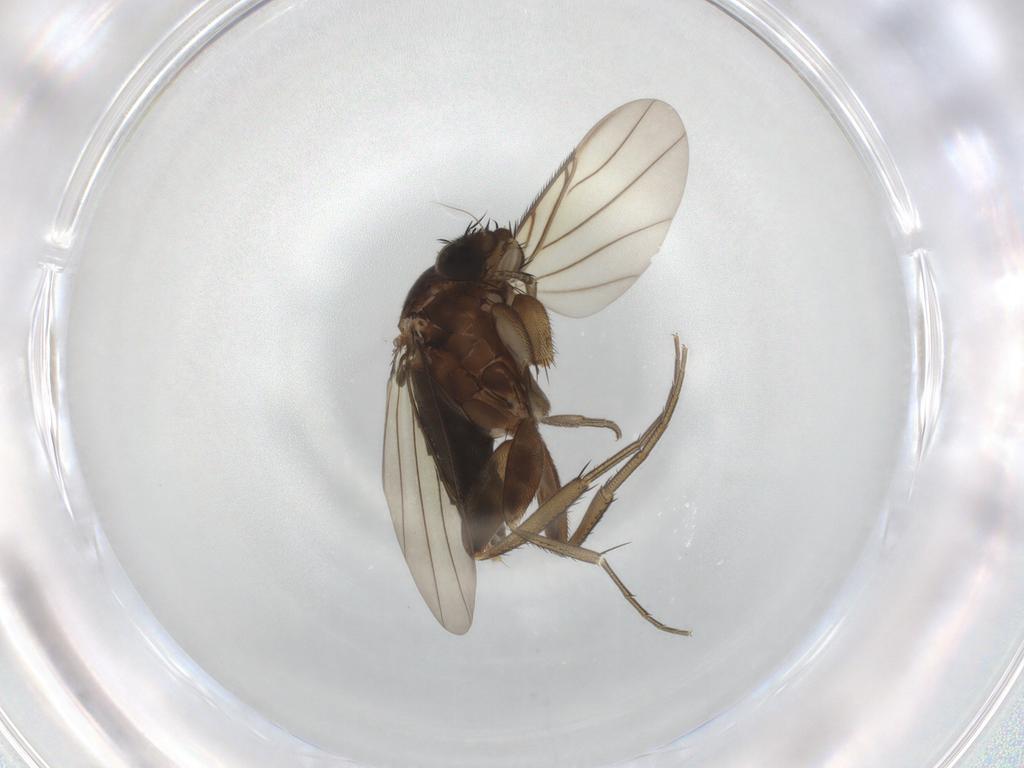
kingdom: Animalia
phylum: Arthropoda
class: Insecta
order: Diptera
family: Phoridae
